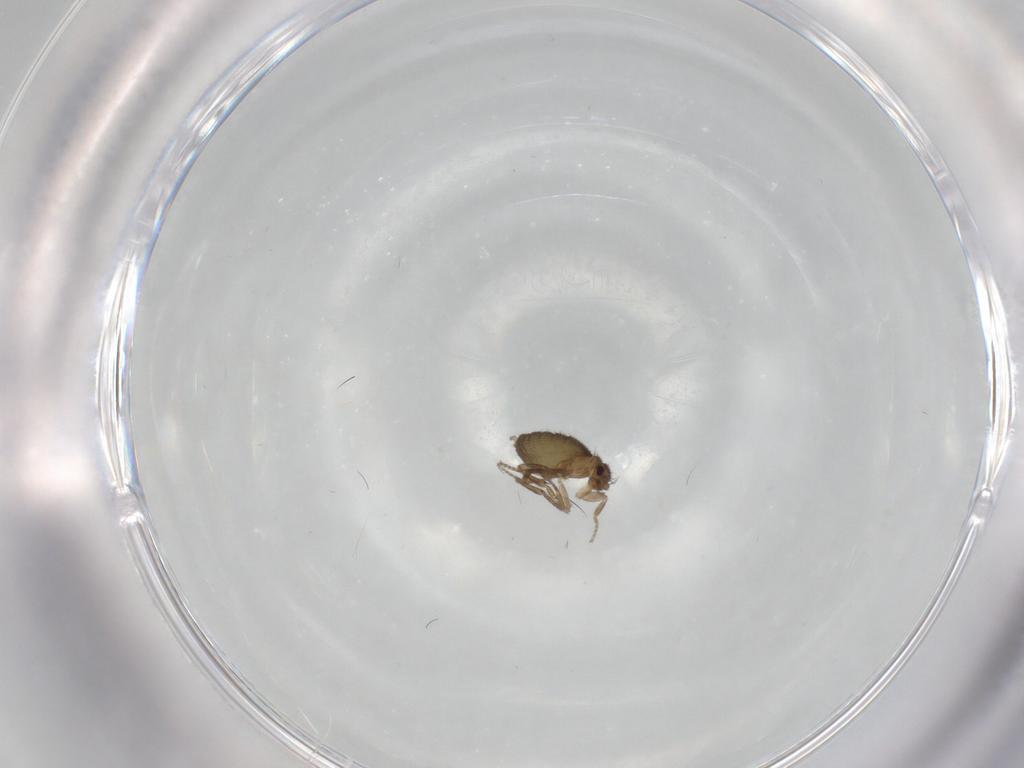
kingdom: Animalia
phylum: Arthropoda
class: Insecta
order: Diptera
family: Phoridae
